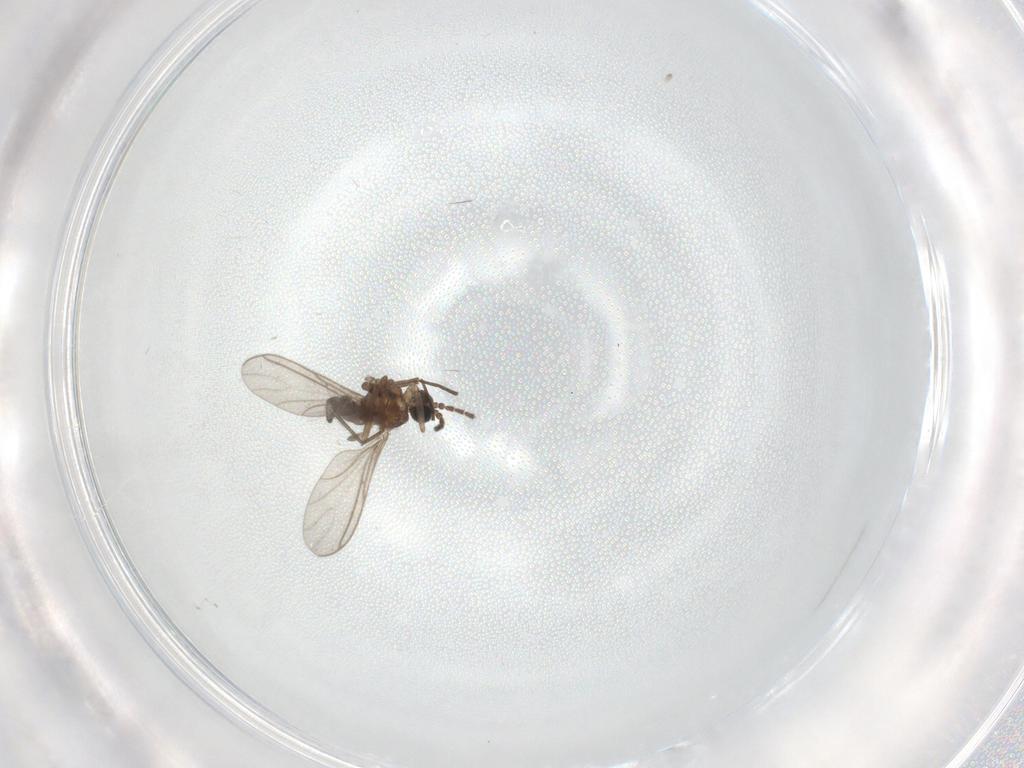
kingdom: Animalia
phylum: Arthropoda
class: Insecta
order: Diptera
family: Cecidomyiidae
